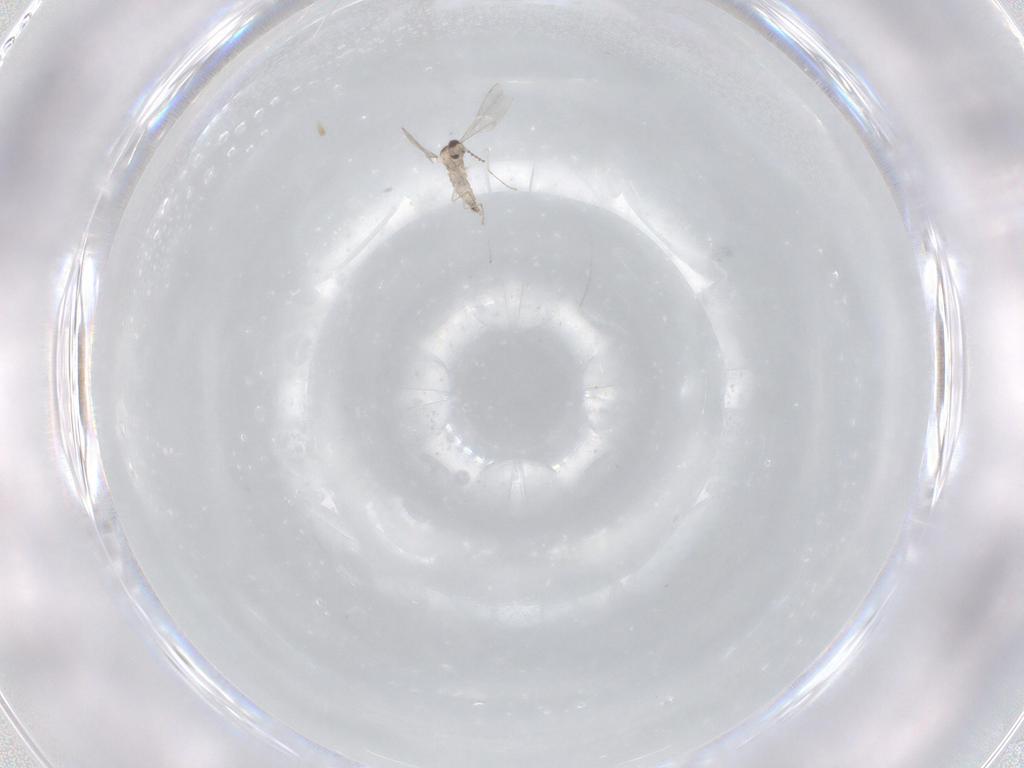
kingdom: Animalia
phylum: Arthropoda
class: Insecta
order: Diptera
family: Cecidomyiidae
